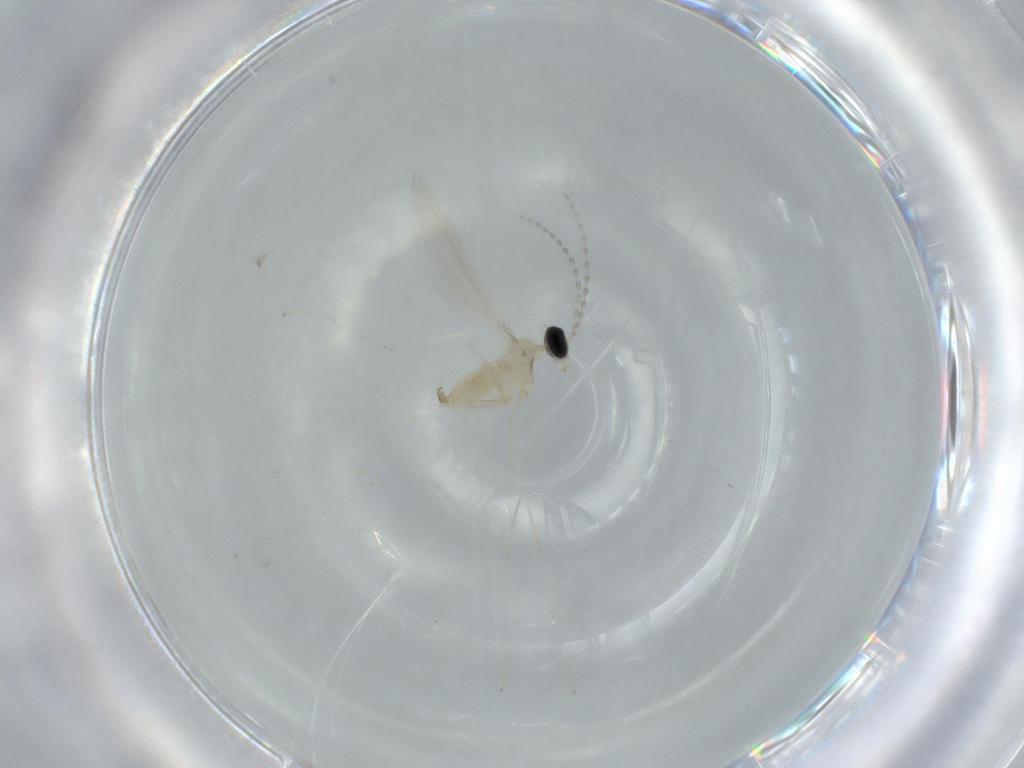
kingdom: Animalia
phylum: Arthropoda
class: Insecta
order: Diptera
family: Cecidomyiidae
